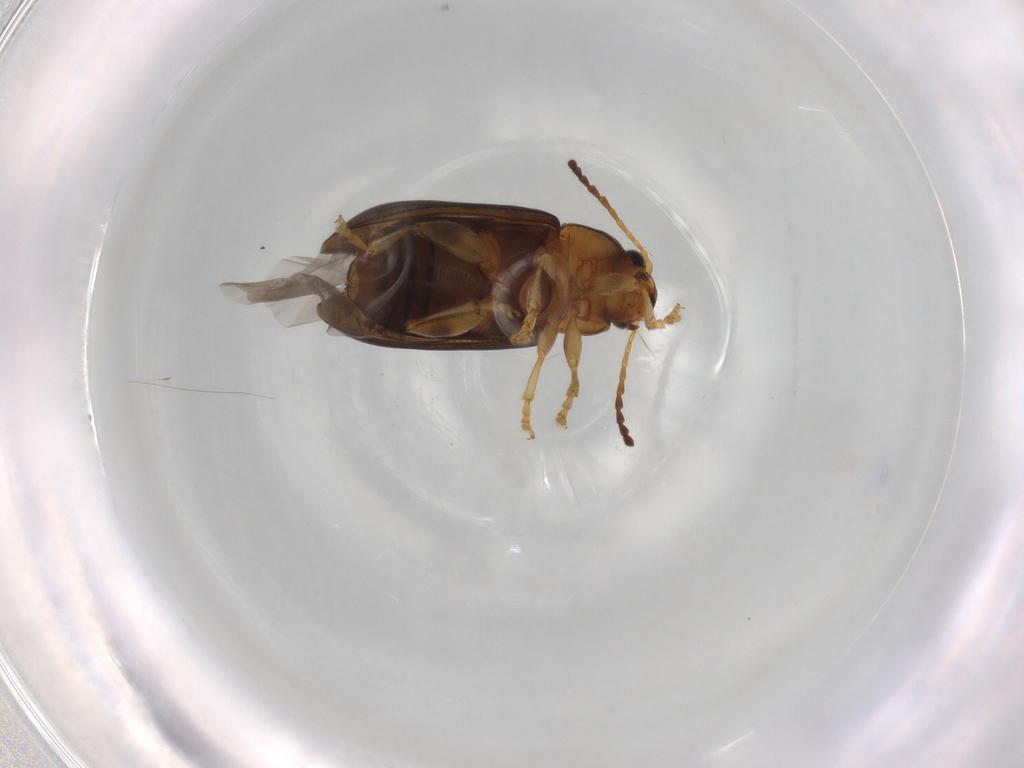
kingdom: Animalia
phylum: Arthropoda
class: Insecta
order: Coleoptera
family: Chrysomelidae
